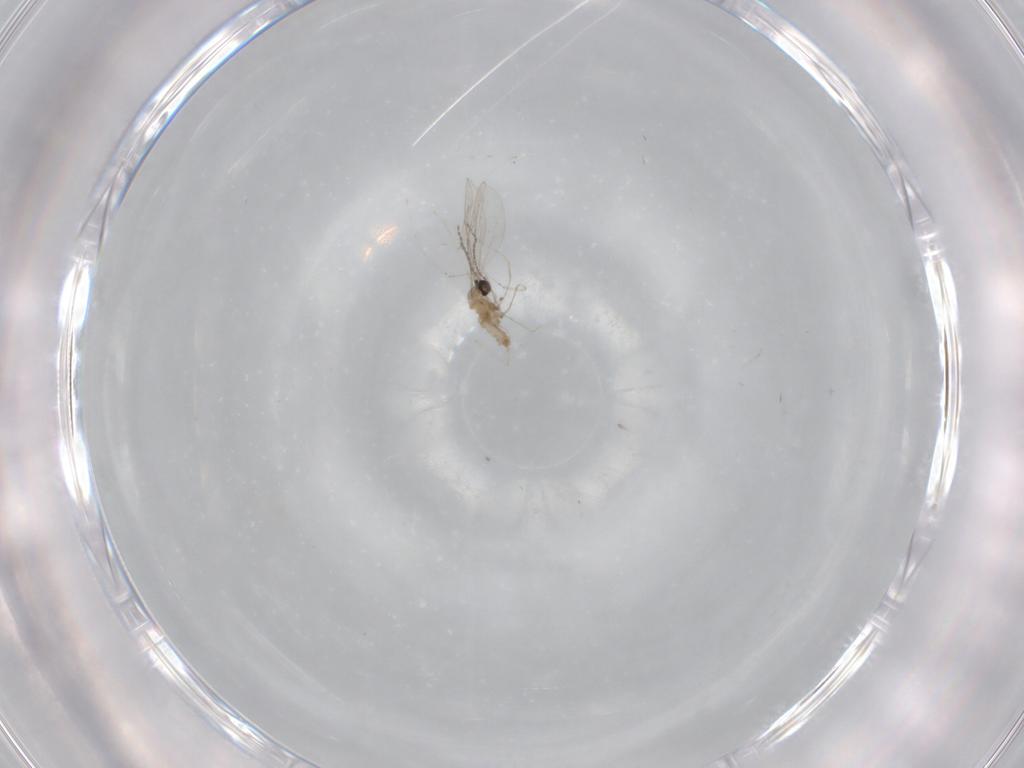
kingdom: Animalia
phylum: Arthropoda
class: Insecta
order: Diptera
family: Cecidomyiidae
